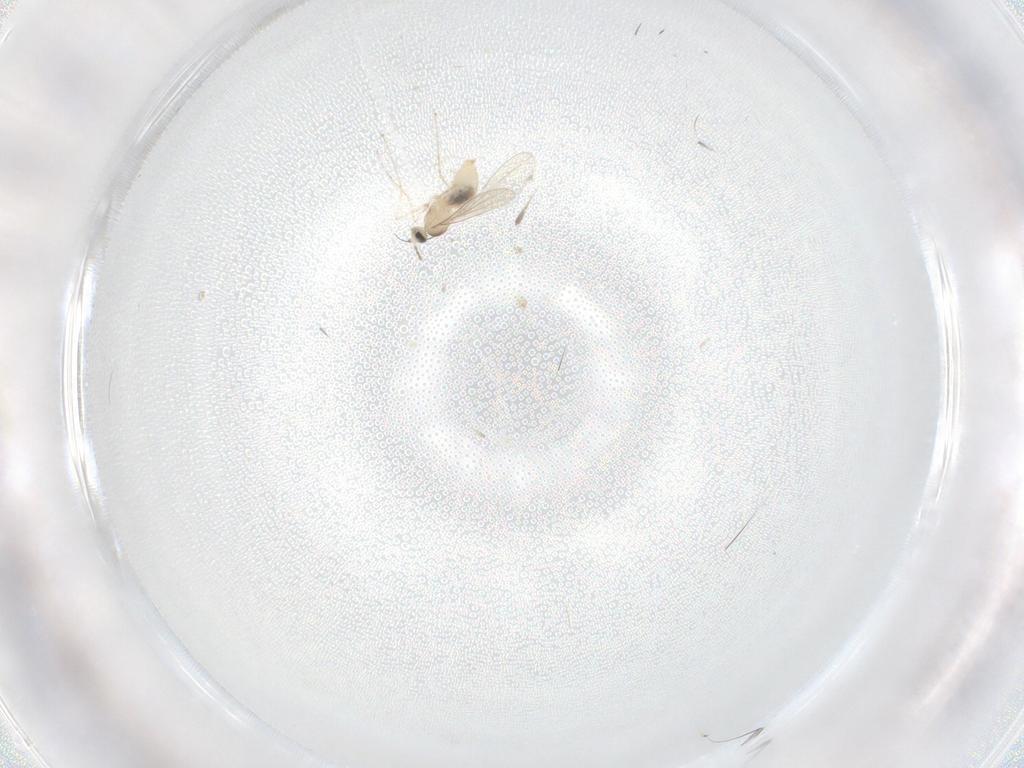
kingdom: Animalia
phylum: Arthropoda
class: Insecta
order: Diptera
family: Cecidomyiidae
